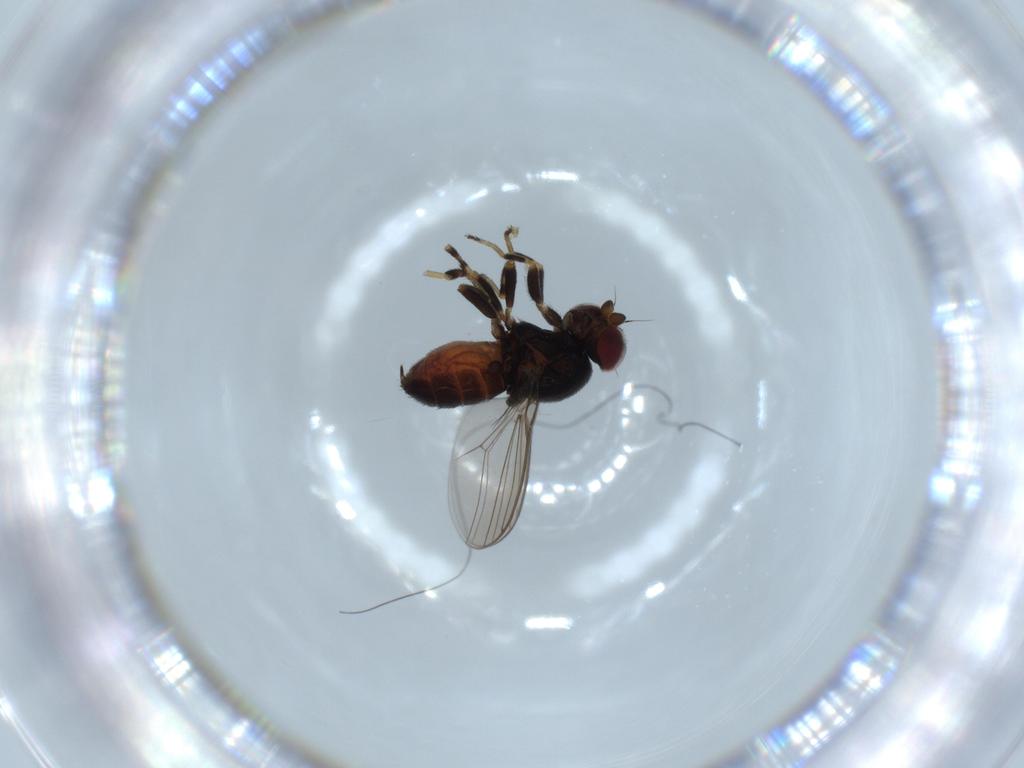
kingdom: Animalia
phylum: Arthropoda
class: Insecta
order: Diptera
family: Chloropidae
